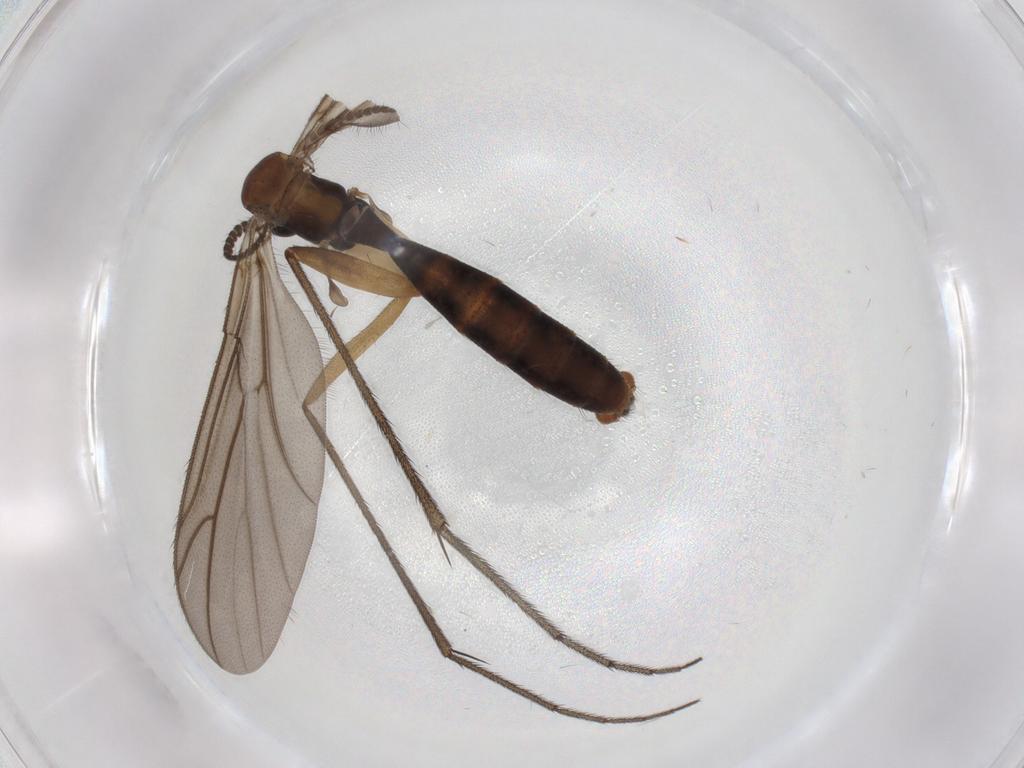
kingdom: Animalia
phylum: Arthropoda
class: Insecta
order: Diptera
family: Ditomyiidae
